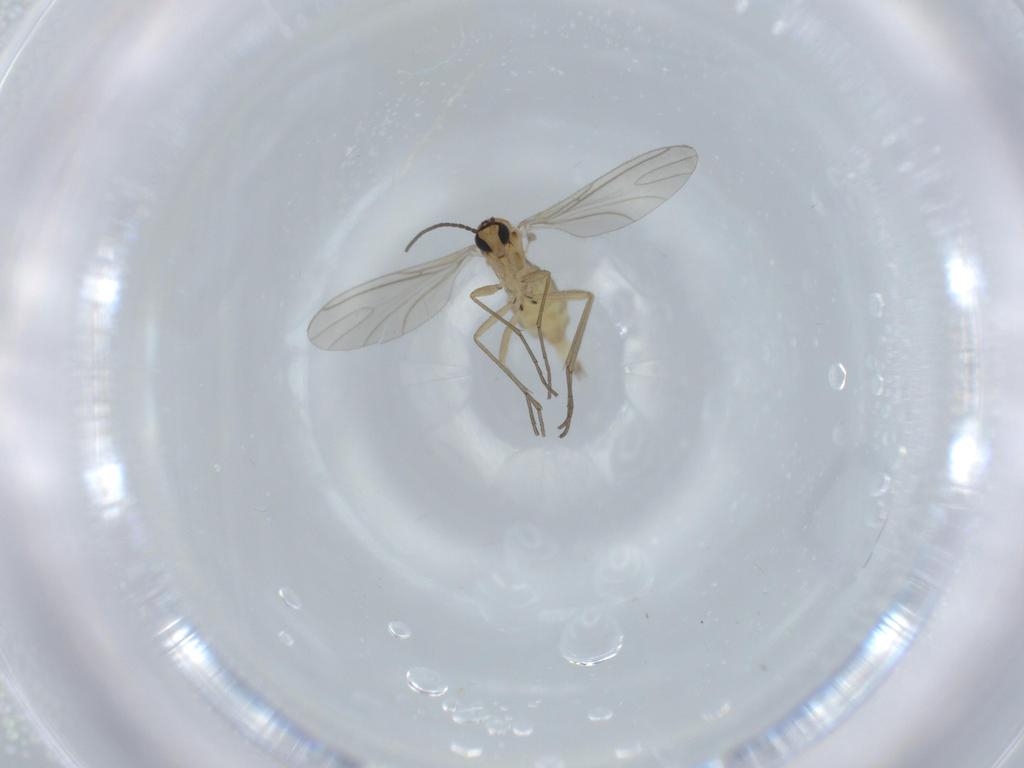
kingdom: Animalia
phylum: Arthropoda
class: Insecta
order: Diptera
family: Sciaridae
